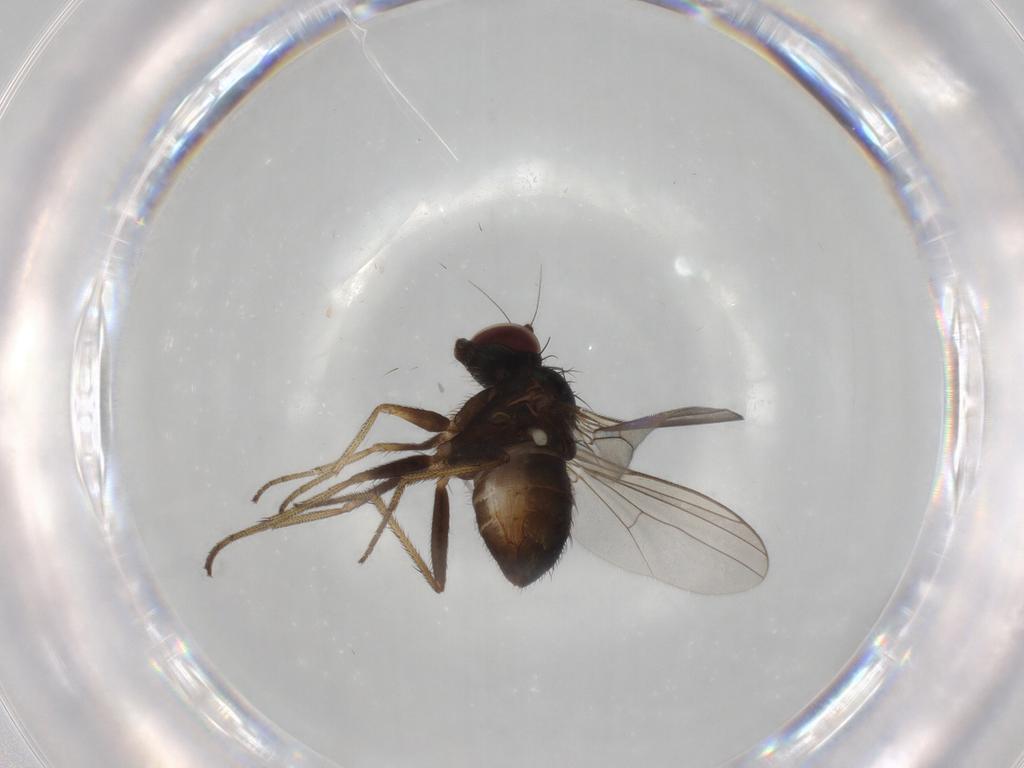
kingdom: Animalia
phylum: Arthropoda
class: Insecta
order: Diptera
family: Dolichopodidae
